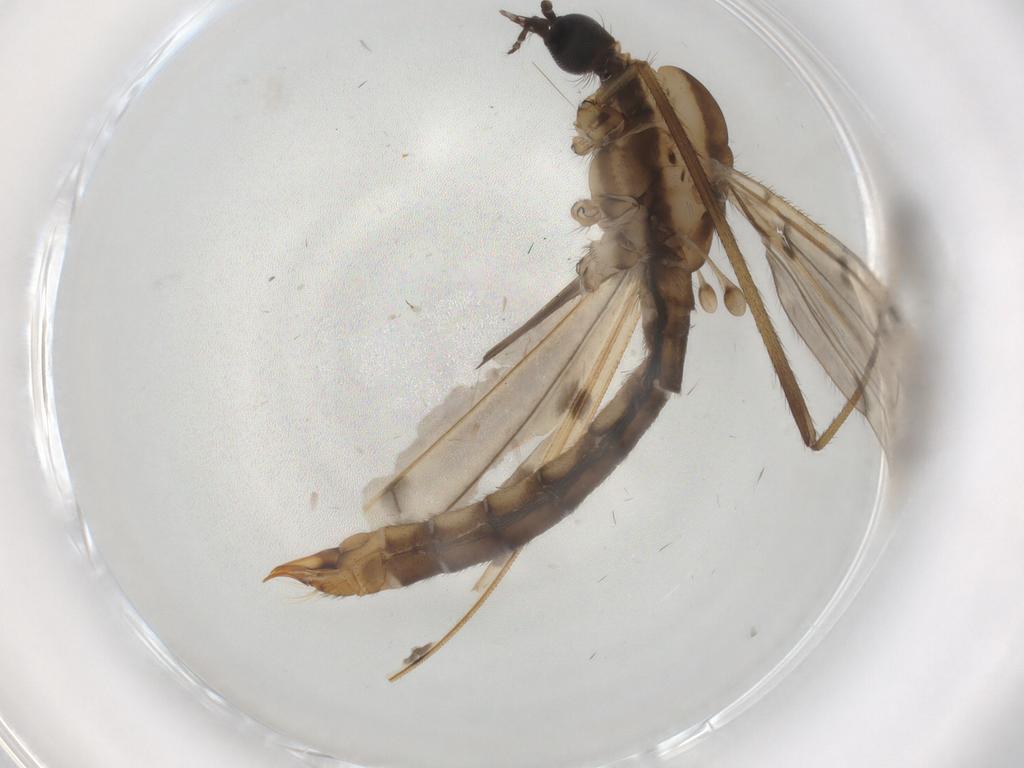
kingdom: Animalia
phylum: Arthropoda
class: Insecta
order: Diptera
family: Limoniidae
